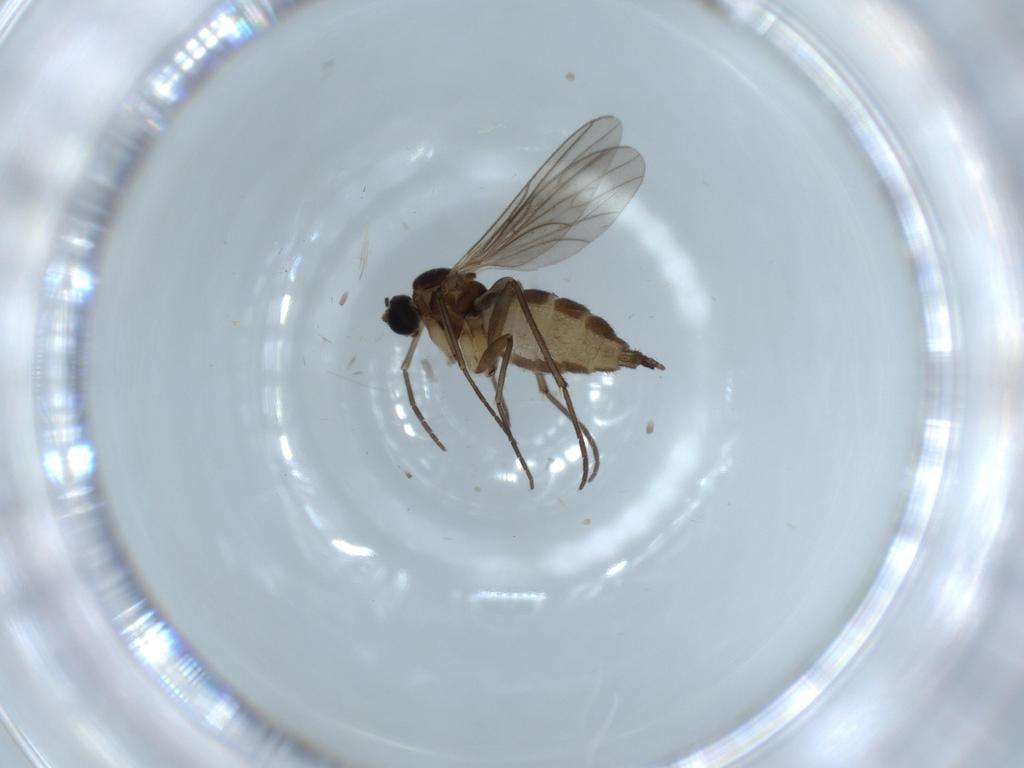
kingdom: Animalia
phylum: Arthropoda
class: Insecta
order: Diptera
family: Sciaridae
